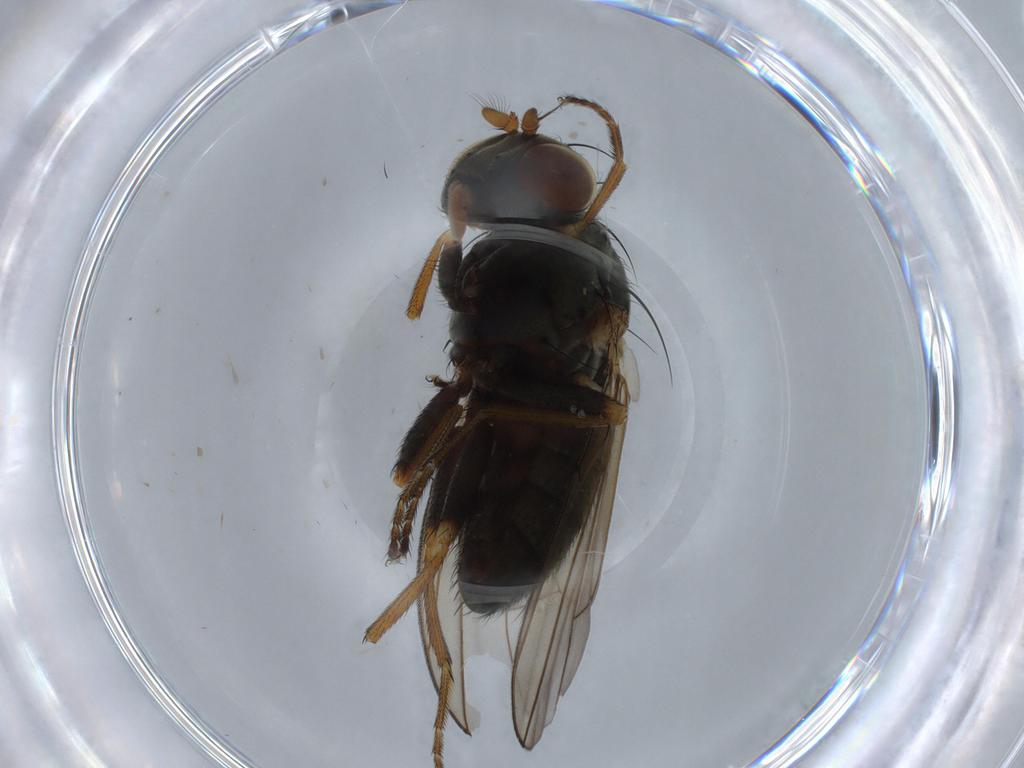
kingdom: Animalia
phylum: Arthropoda
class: Insecta
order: Diptera
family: Ephydridae
